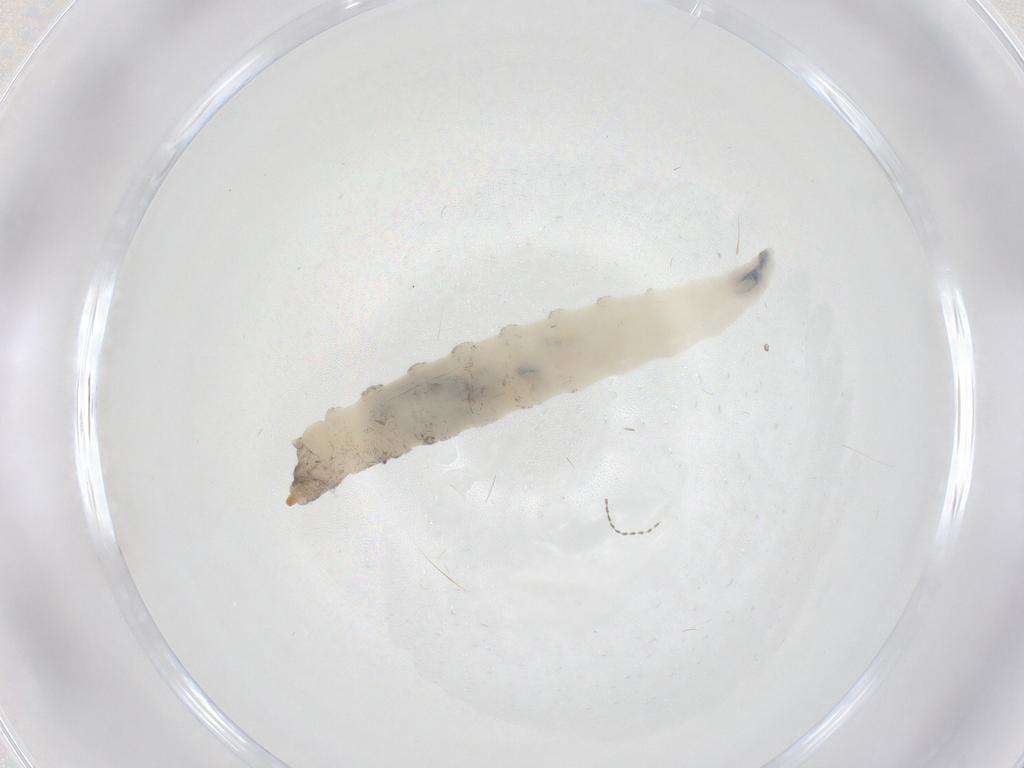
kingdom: Animalia
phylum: Arthropoda
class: Insecta
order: Diptera
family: Drosophilidae
